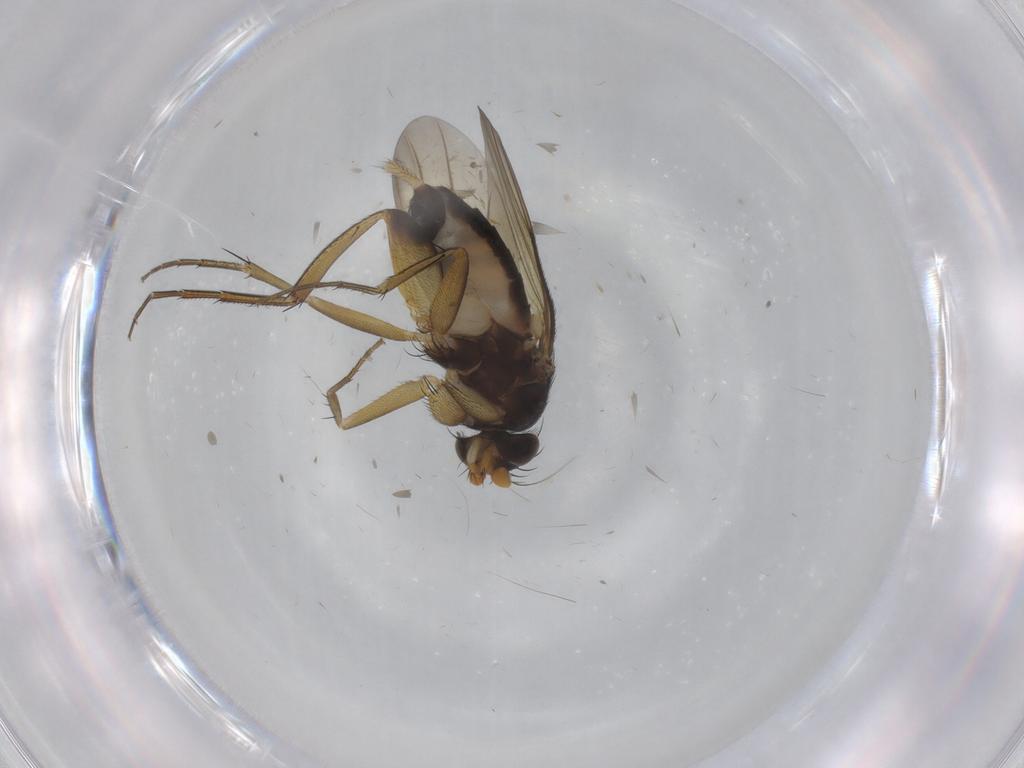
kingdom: Animalia
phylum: Arthropoda
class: Insecta
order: Diptera
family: Phoridae
